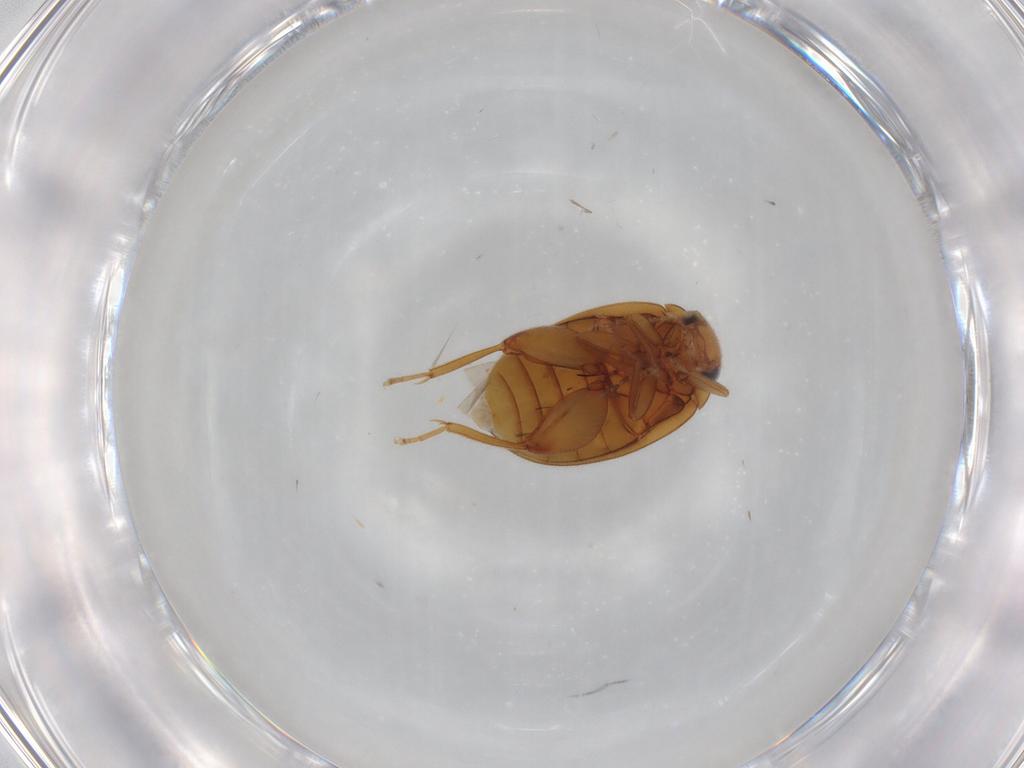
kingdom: Animalia
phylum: Arthropoda
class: Insecta
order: Coleoptera
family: Scirtidae
